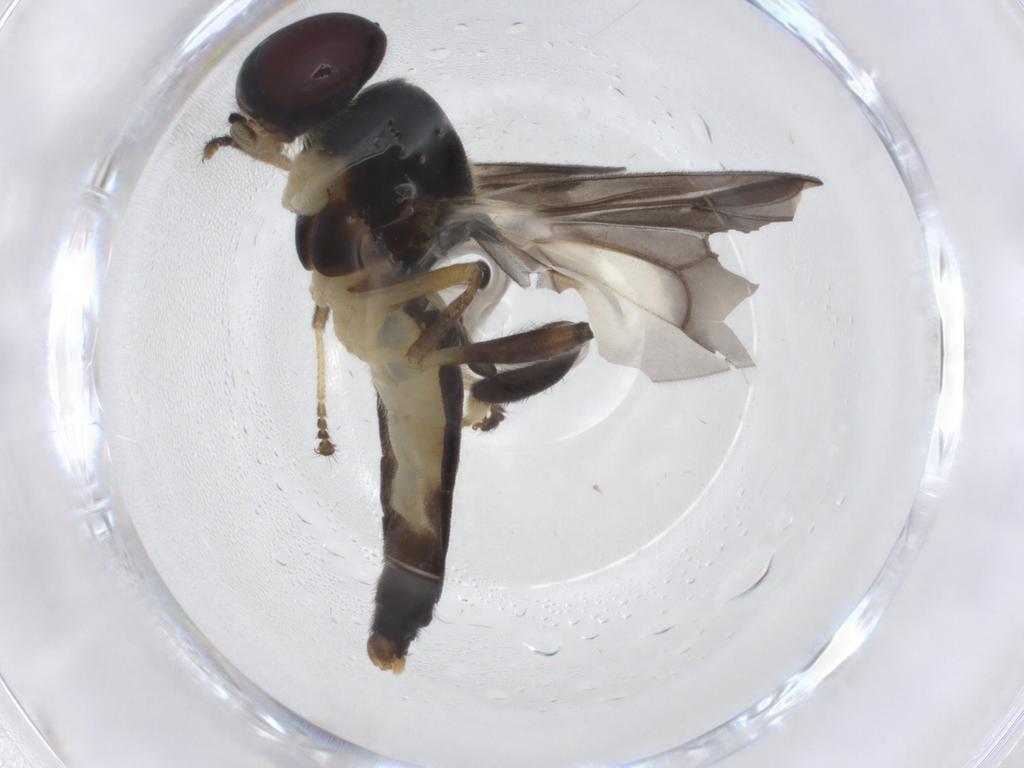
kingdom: Animalia
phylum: Arthropoda
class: Insecta
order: Diptera
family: Stratiomyidae
